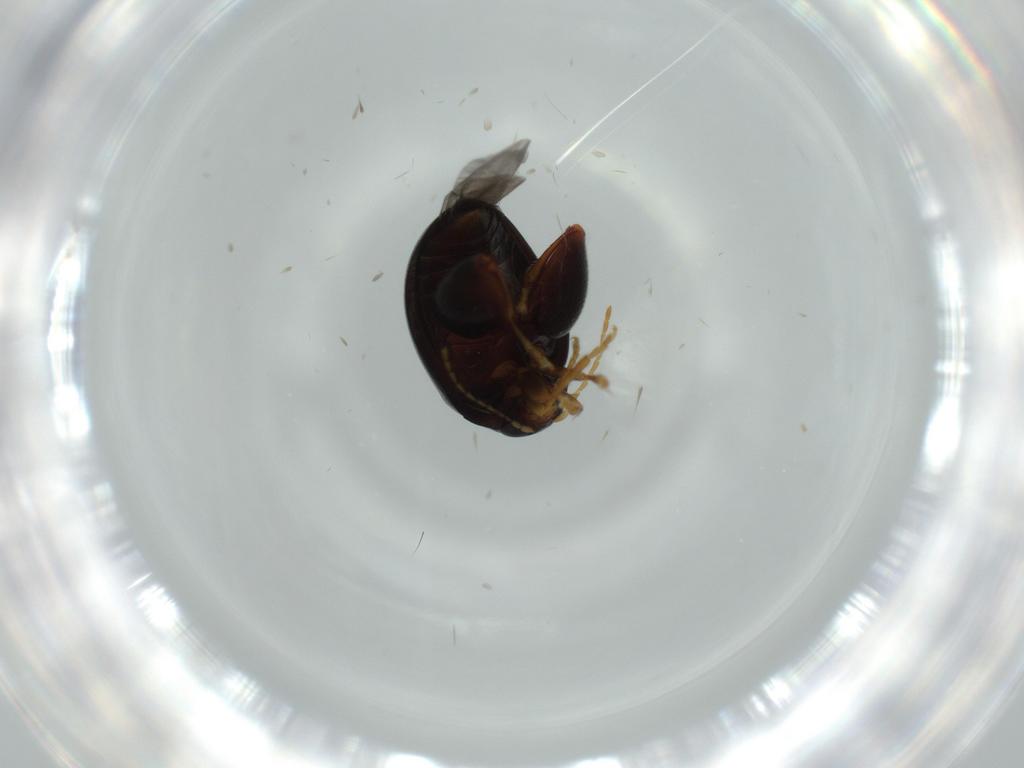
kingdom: Animalia
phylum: Arthropoda
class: Insecta
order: Coleoptera
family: Chrysomelidae
